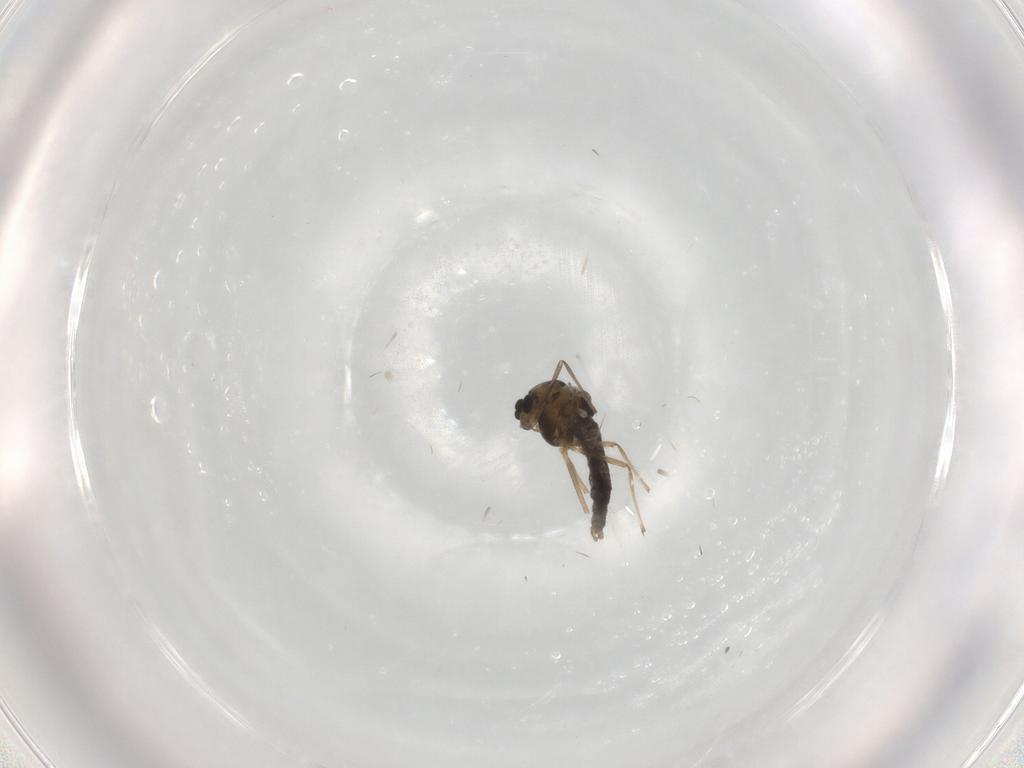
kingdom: Animalia
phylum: Arthropoda
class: Insecta
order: Diptera
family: Chironomidae
